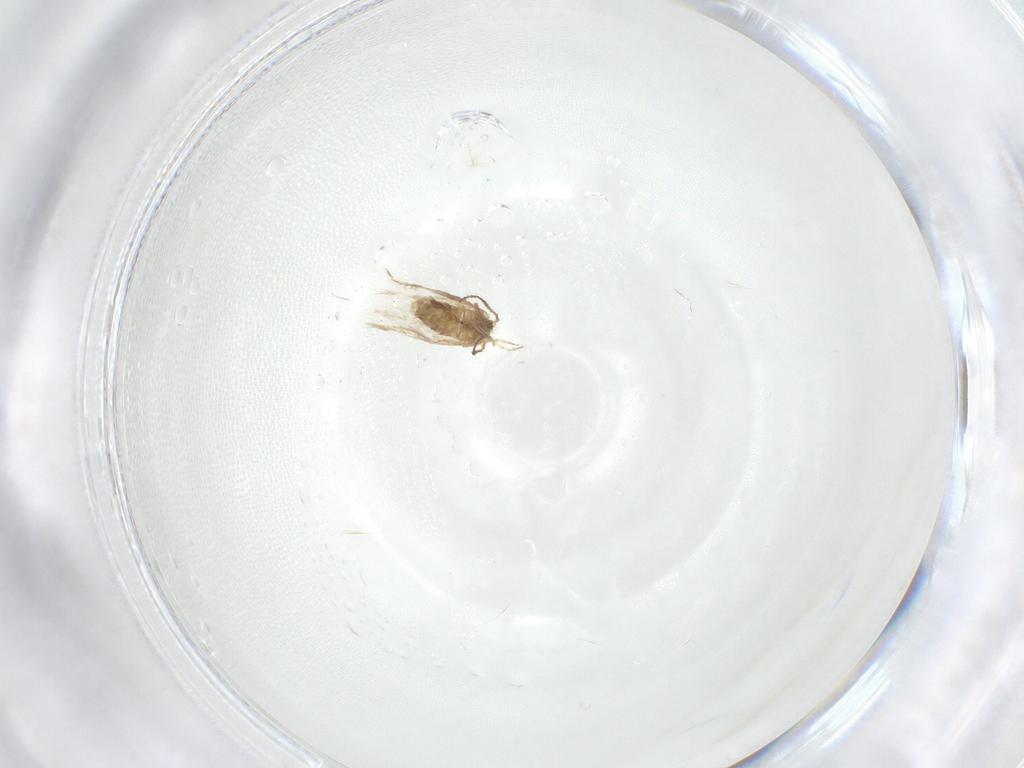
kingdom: Animalia
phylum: Arthropoda
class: Insecta
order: Lepidoptera
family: Nepticulidae
